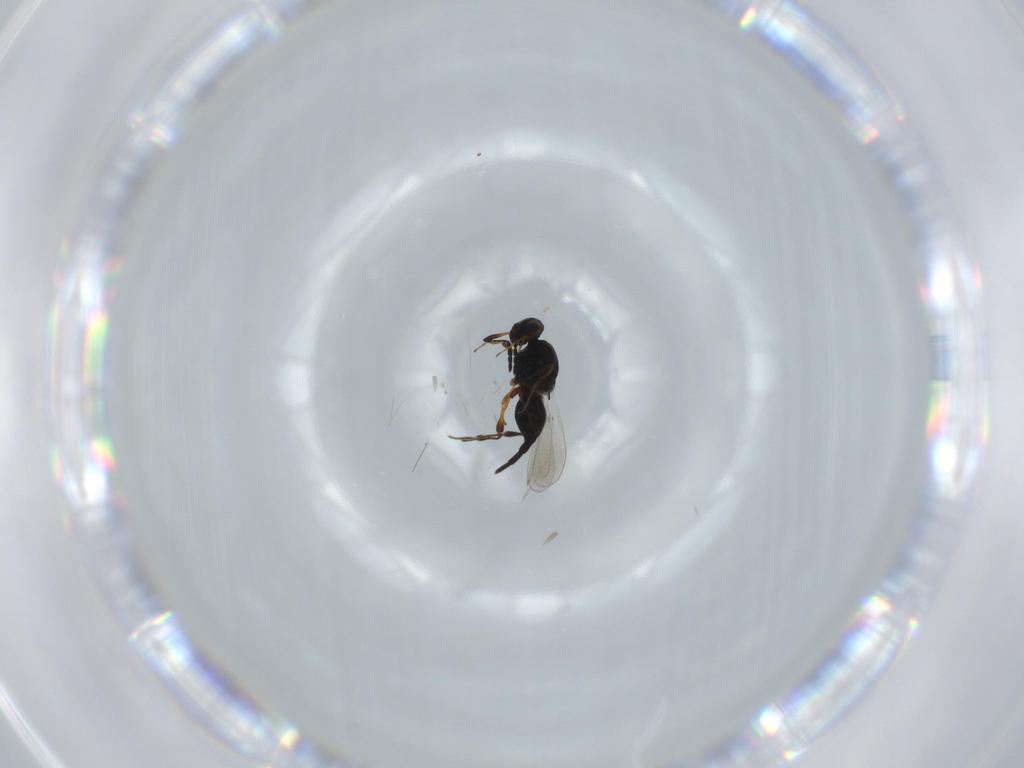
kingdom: Animalia
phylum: Arthropoda
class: Insecta
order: Hymenoptera
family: Platygastridae
